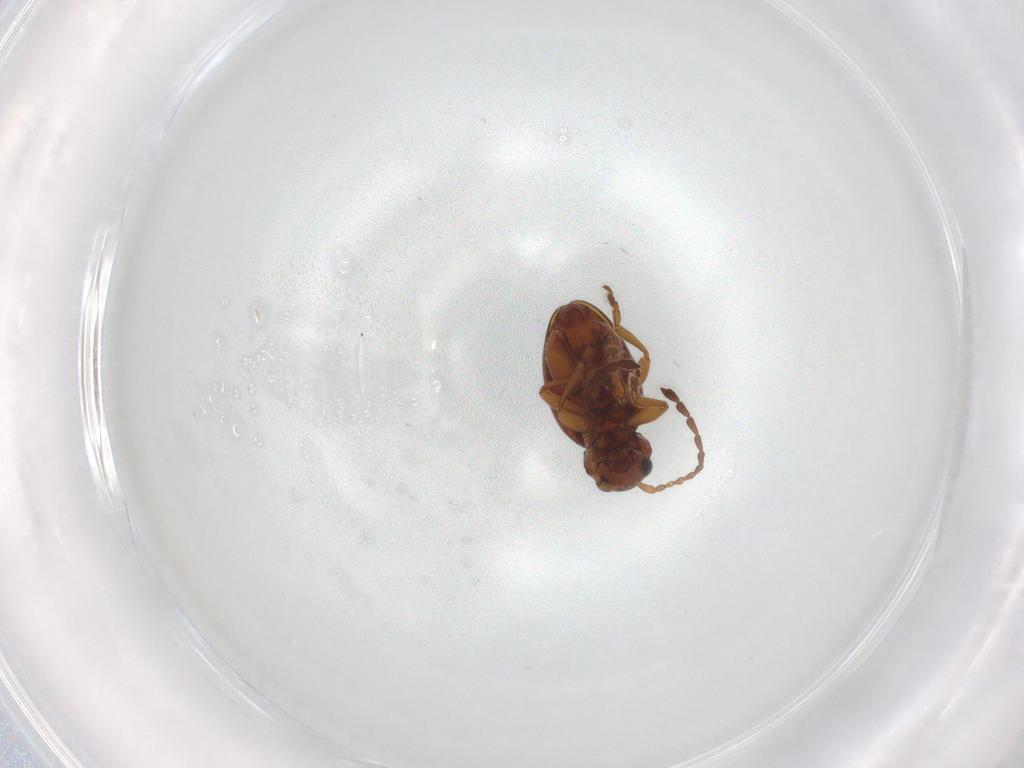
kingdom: Animalia
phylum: Arthropoda
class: Insecta
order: Coleoptera
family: Chrysomelidae
